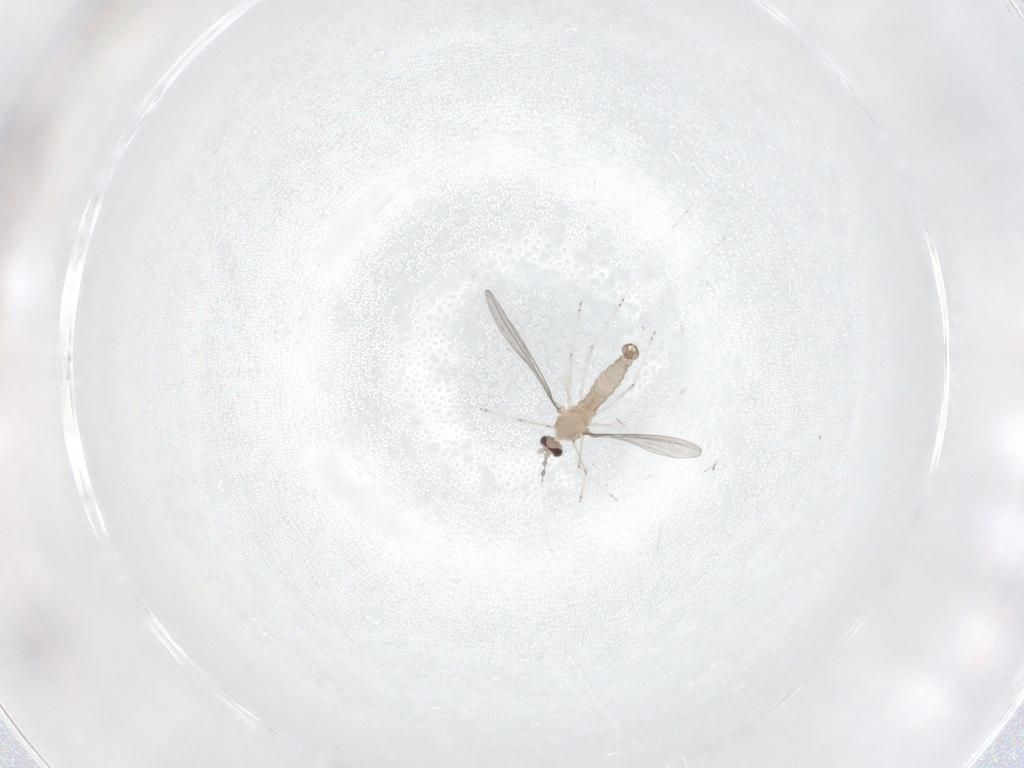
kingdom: Animalia
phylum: Arthropoda
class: Insecta
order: Diptera
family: Cecidomyiidae
